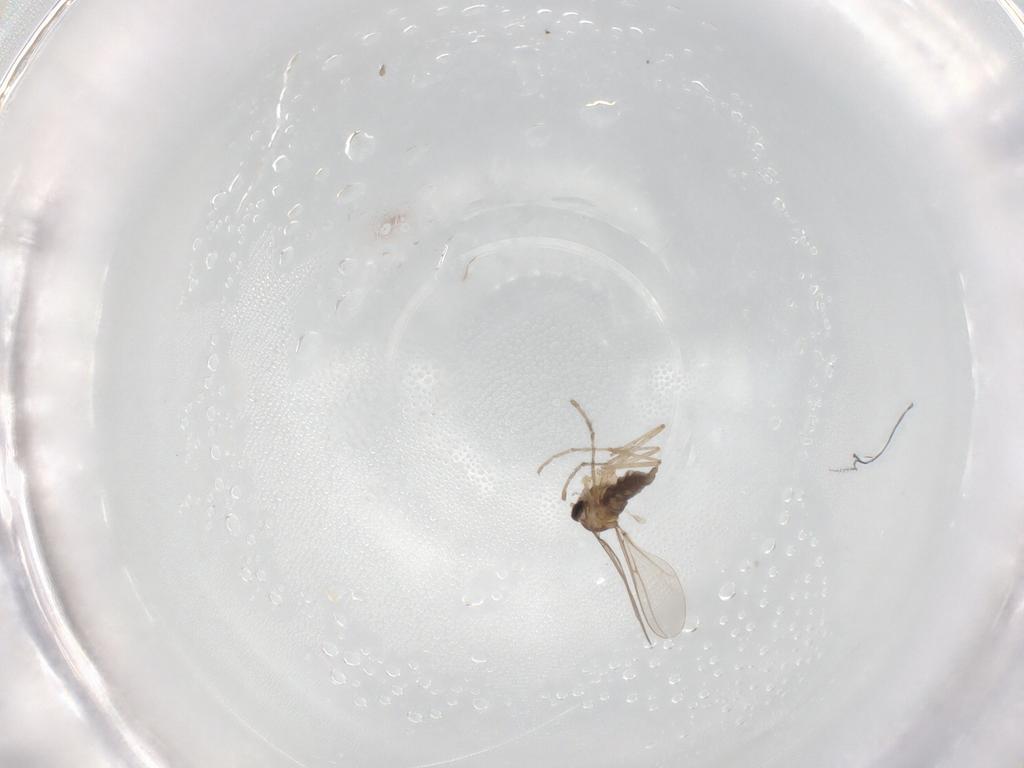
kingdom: Animalia
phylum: Arthropoda
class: Insecta
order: Diptera
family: Cecidomyiidae
